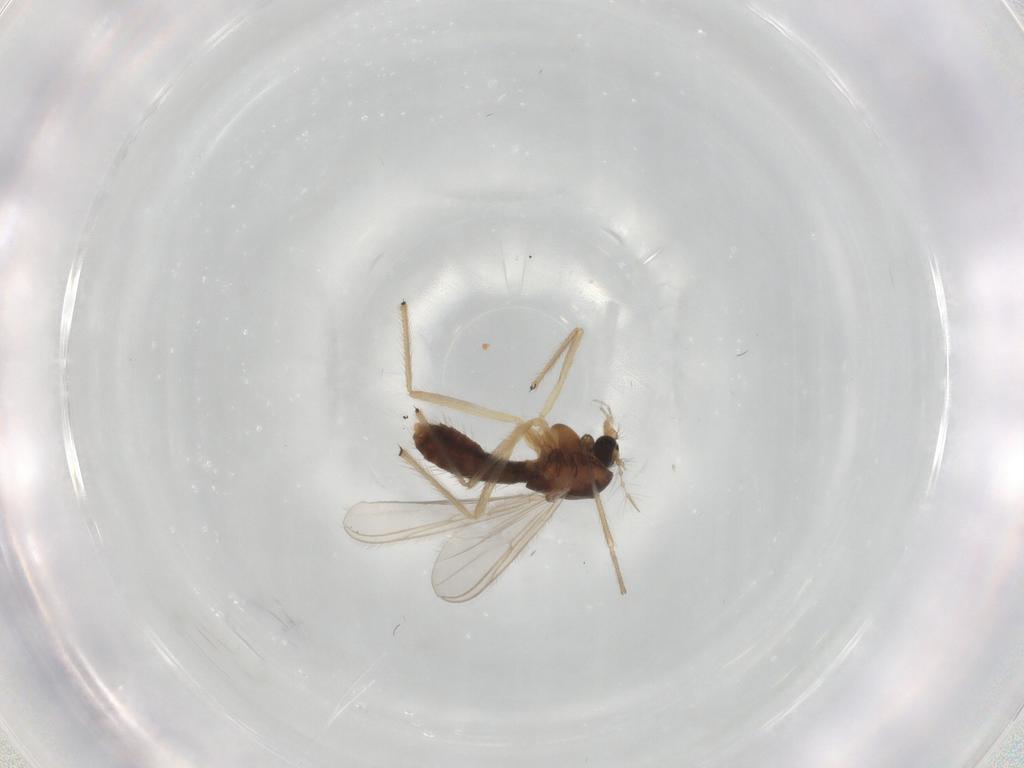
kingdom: Animalia
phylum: Arthropoda
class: Insecta
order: Diptera
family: Chironomidae
